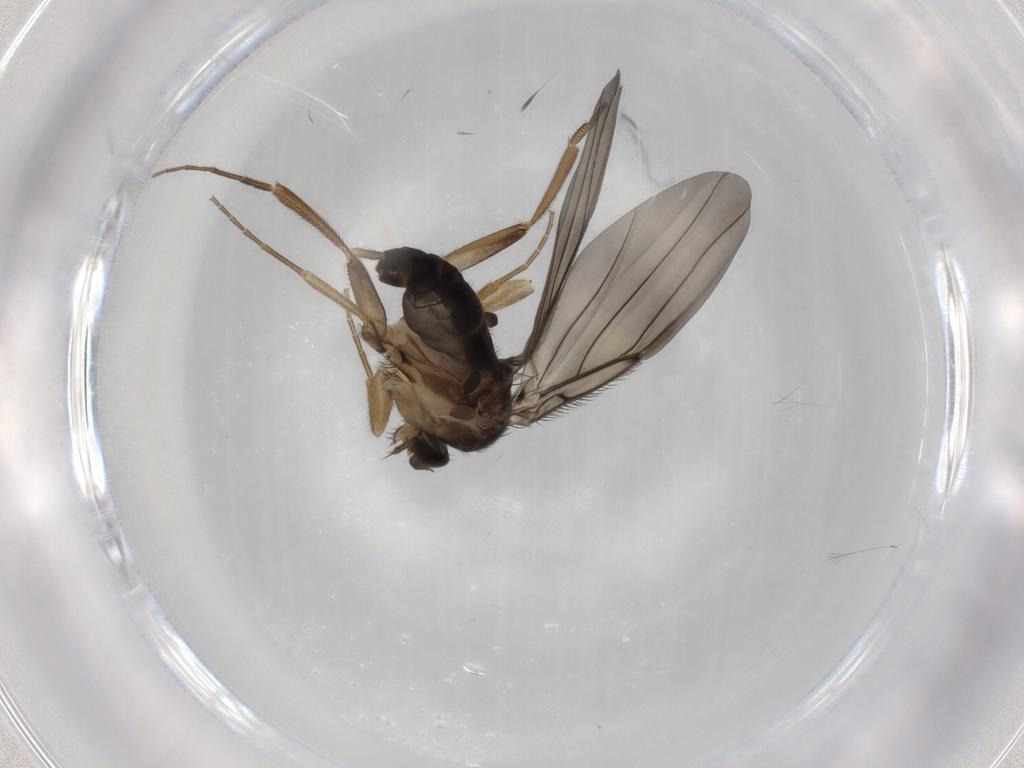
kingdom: Animalia
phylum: Arthropoda
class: Insecta
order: Diptera
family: Phoridae
